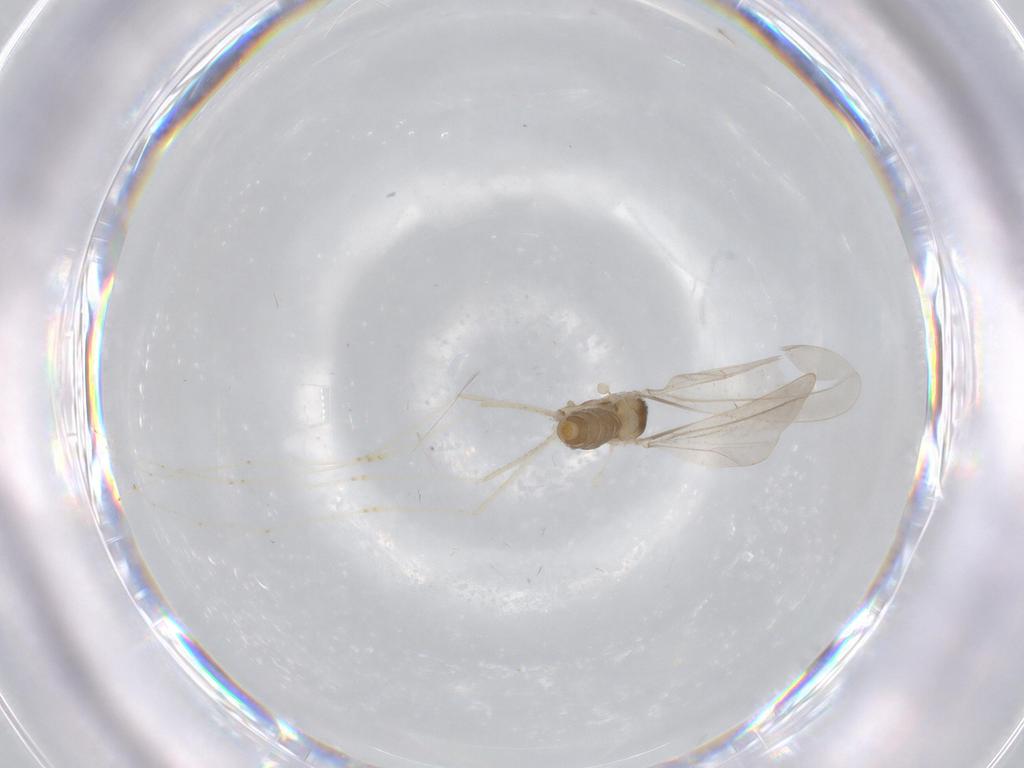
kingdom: Animalia
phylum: Arthropoda
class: Insecta
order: Diptera
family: Cecidomyiidae
